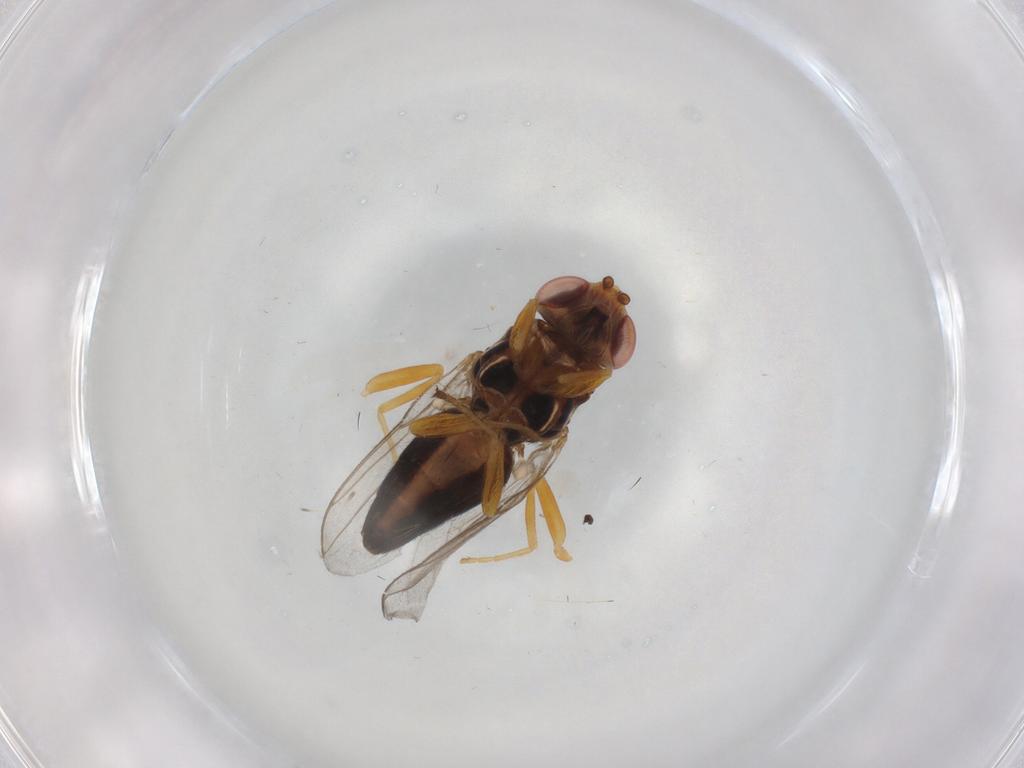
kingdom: Animalia
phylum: Arthropoda
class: Insecta
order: Diptera
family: Chloropidae
